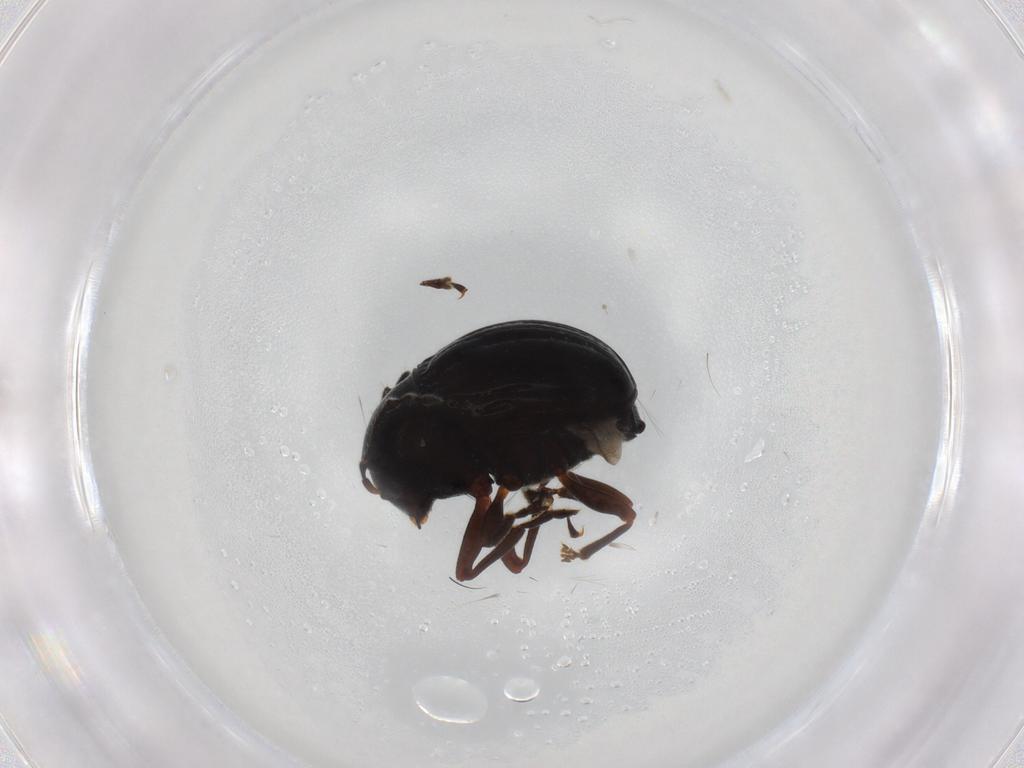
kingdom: Animalia
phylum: Arthropoda
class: Insecta
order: Coleoptera
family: Anthribidae
